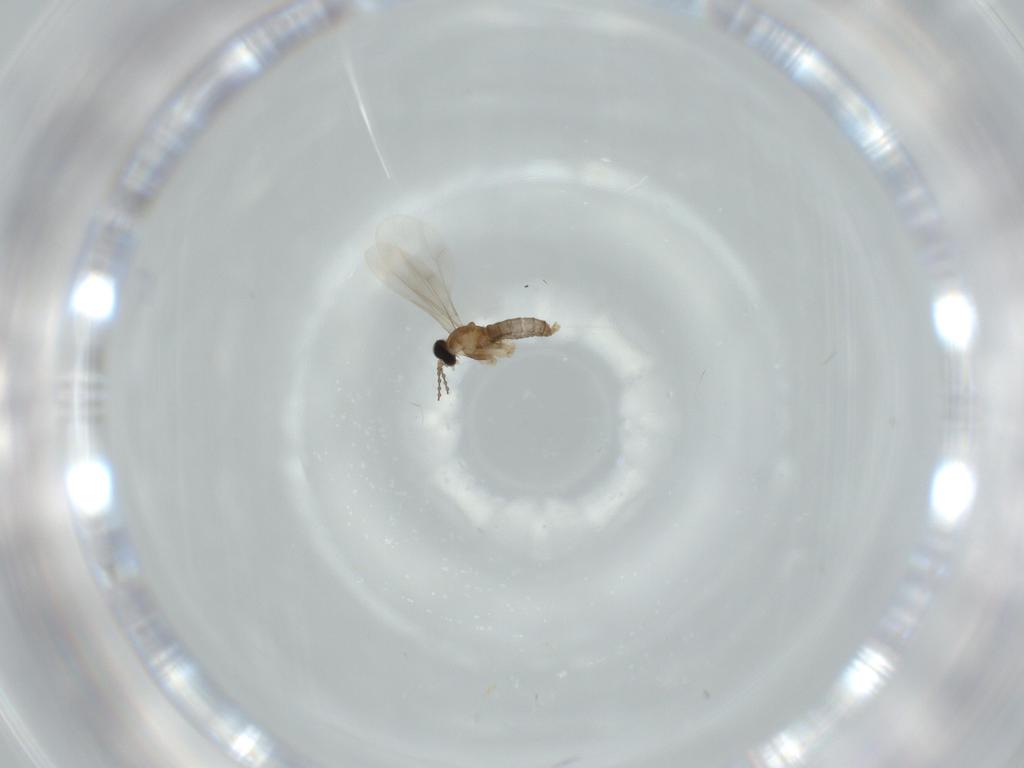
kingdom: Animalia
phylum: Arthropoda
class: Insecta
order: Diptera
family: Cecidomyiidae
